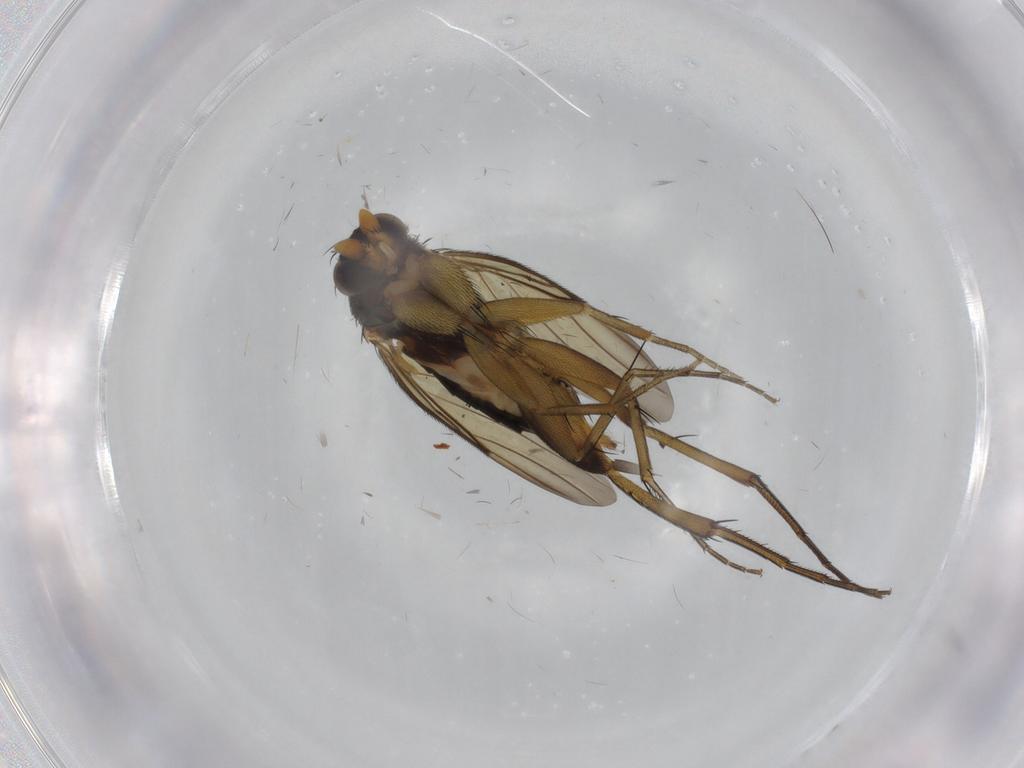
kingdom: Animalia
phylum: Arthropoda
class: Insecta
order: Diptera
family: Phoridae
